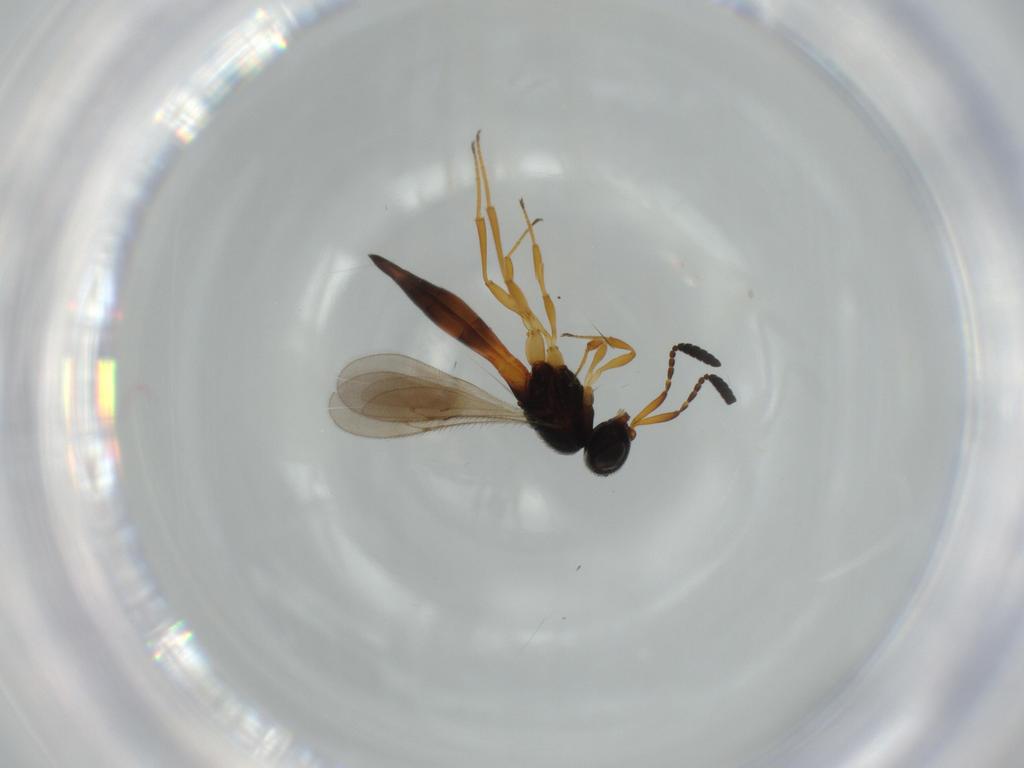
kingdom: Animalia
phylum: Arthropoda
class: Insecta
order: Hymenoptera
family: Scelionidae
